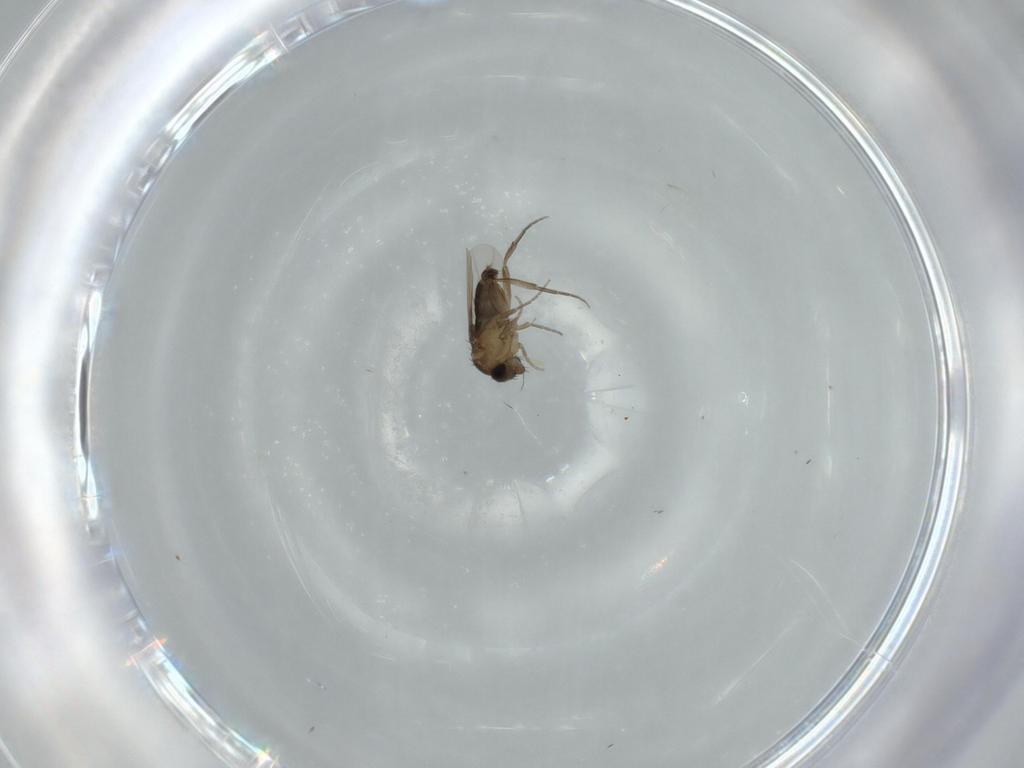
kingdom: Animalia
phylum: Arthropoda
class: Insecta
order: Diptera
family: Phoridae
